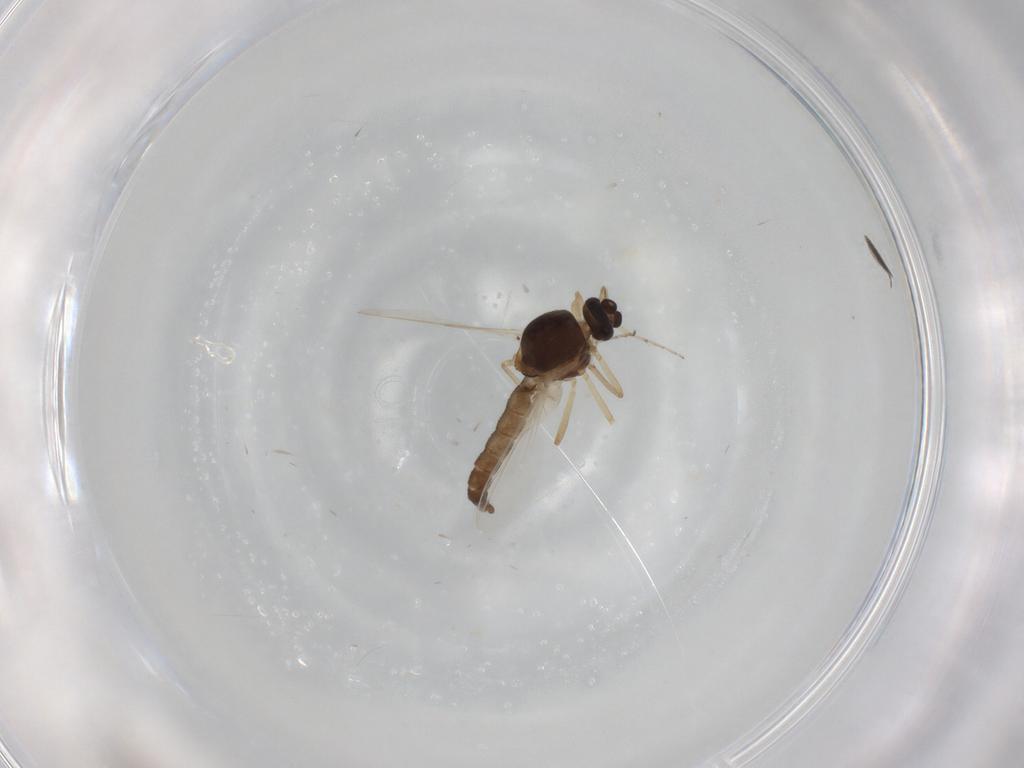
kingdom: Animalia
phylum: Arthropoda
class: Insecta
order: Diptera
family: Ceratopogonidae
